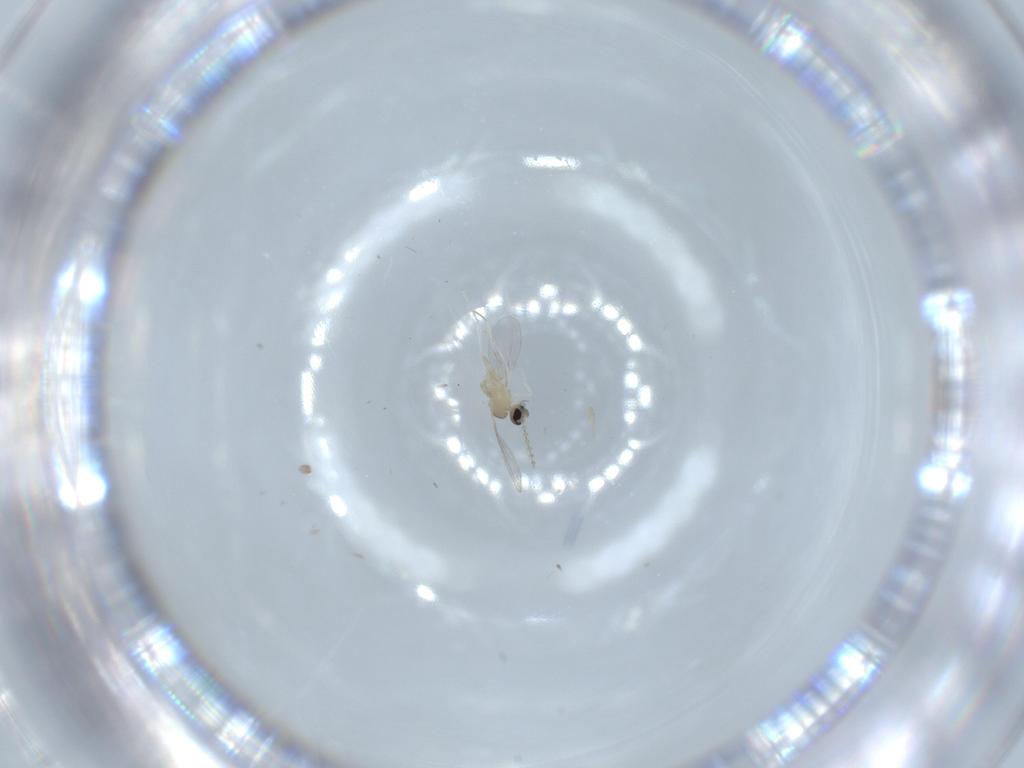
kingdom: Animalia
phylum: Arthropoda
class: Insecta
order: Diptera
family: Cecidomyiidae
